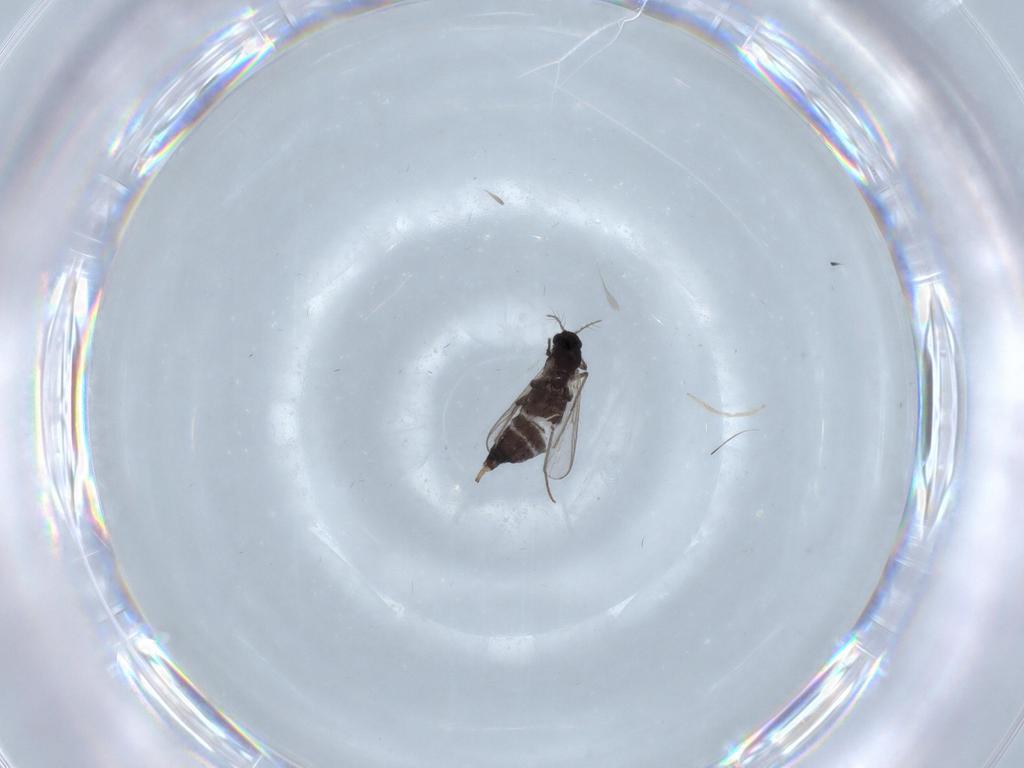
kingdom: Animalia
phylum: Arthropoda
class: Insecta
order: Diptera
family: Chironomidae
